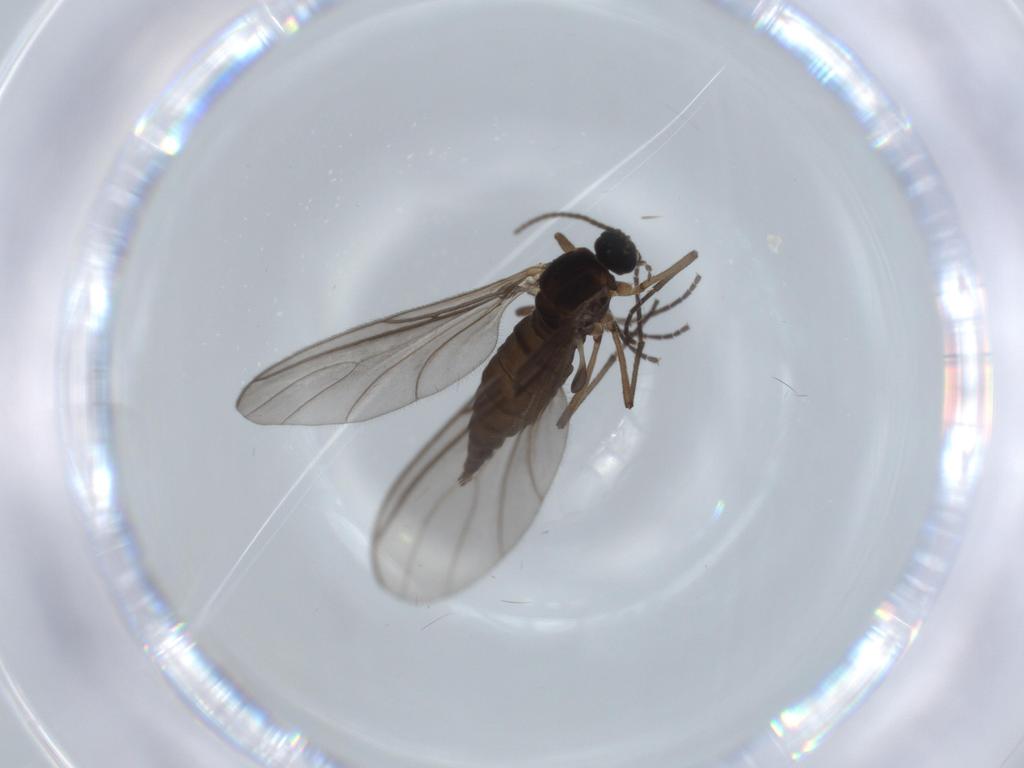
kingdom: Animalia
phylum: Arthropoda
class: Insecta
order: Diptera
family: Sciaridae
